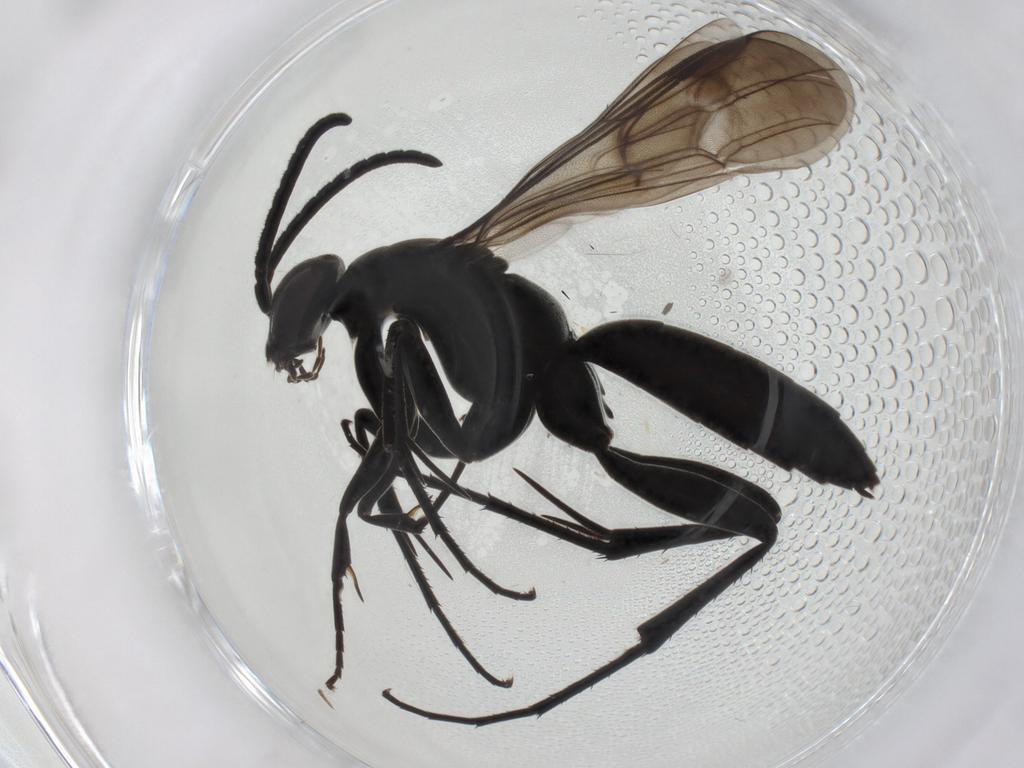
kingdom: Animalia
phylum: Arthropoda
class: Insecta
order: Hymenoptera
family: Pompilidae
